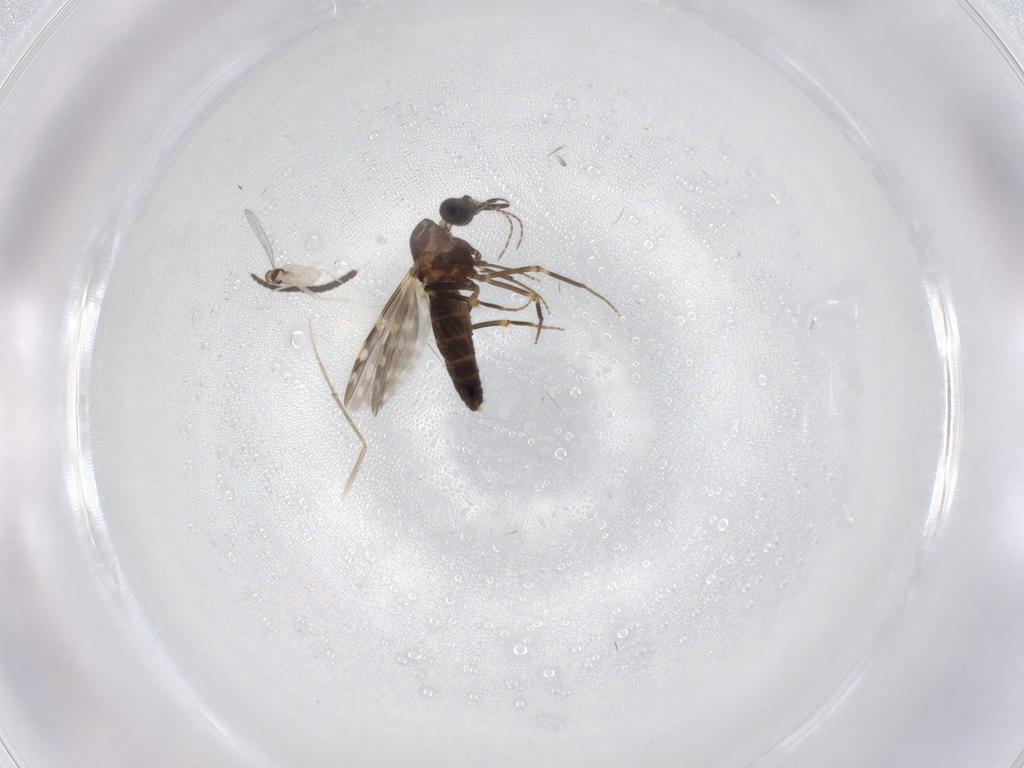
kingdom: Animalia
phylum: Arthropoda
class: Insecta
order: Diptera
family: Ceratopogonidae
